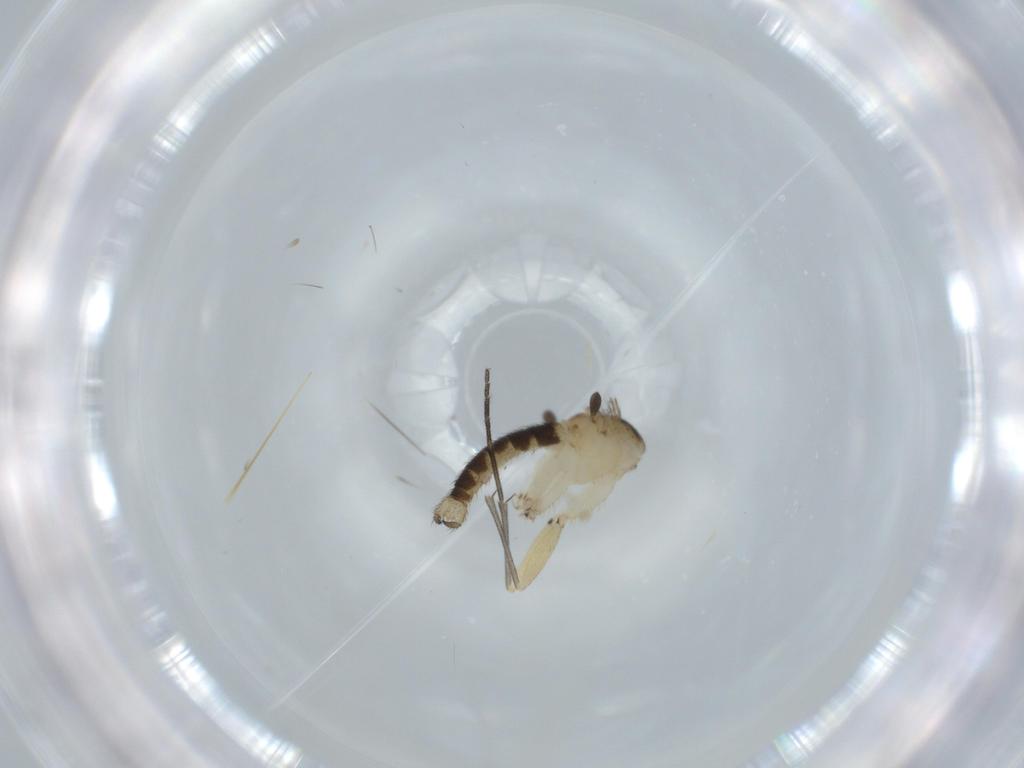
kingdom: Animalia
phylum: Arthropoda
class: Insecta
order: Diptera
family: Sciaridae
